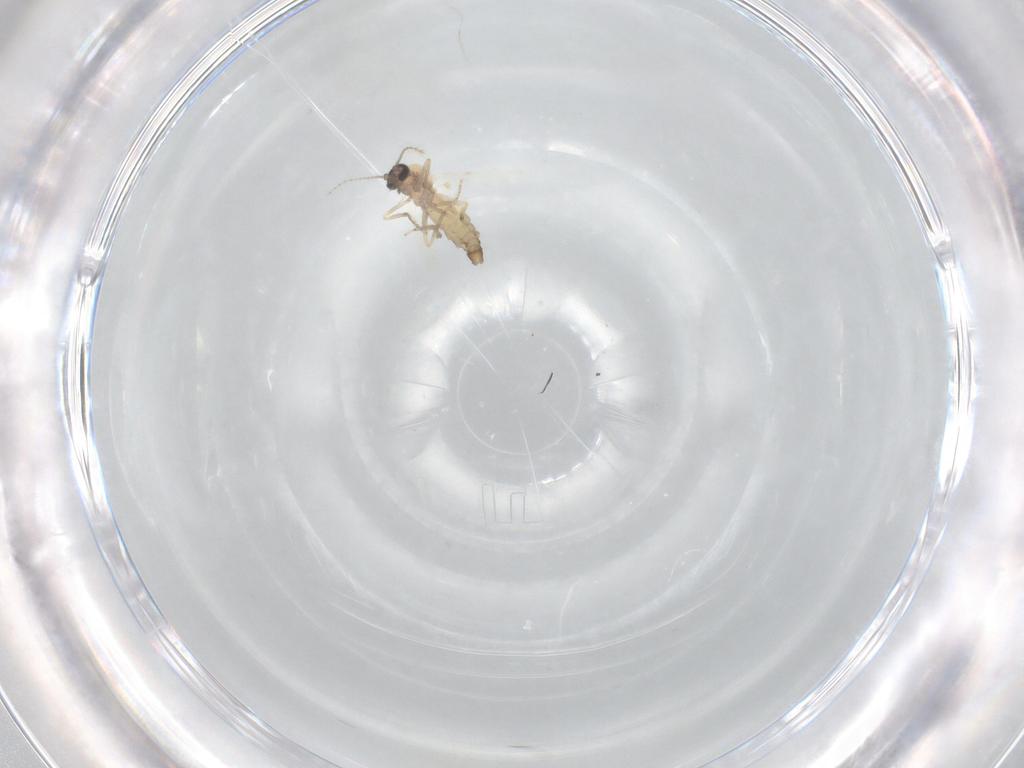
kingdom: Animalia
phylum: Arthropoda
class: Insecta
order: Diptera
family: Ceratopogonidae
